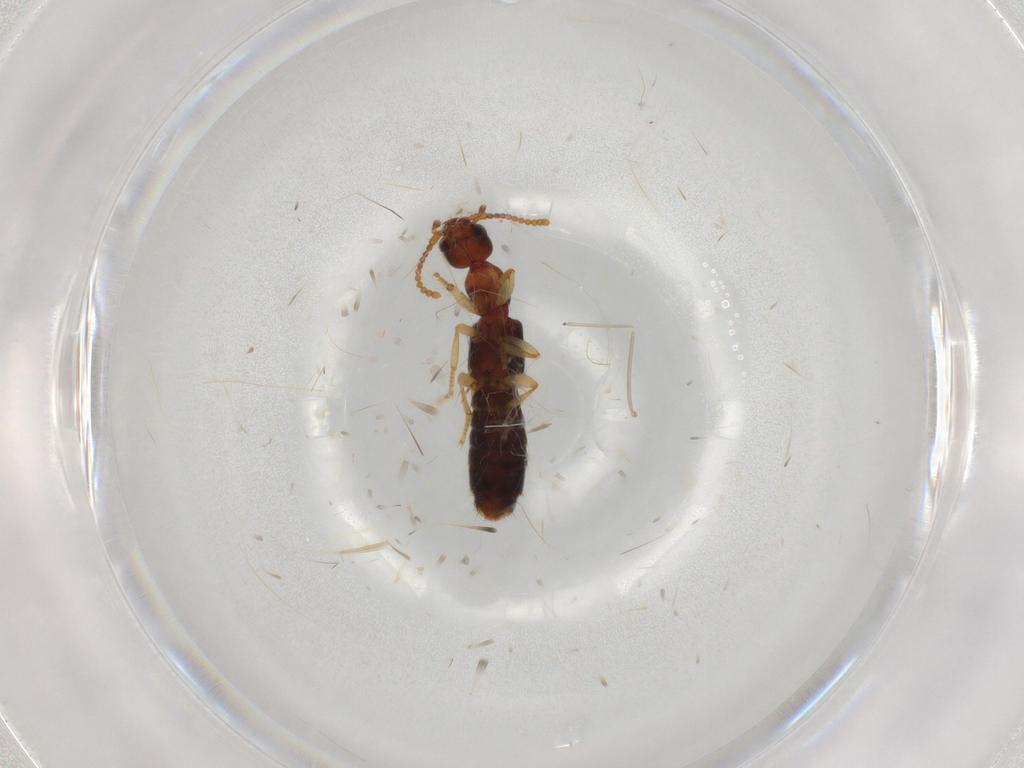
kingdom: Animalia
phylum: Arthropoda
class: Insecta
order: Coleoptera
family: Staphylinidae
